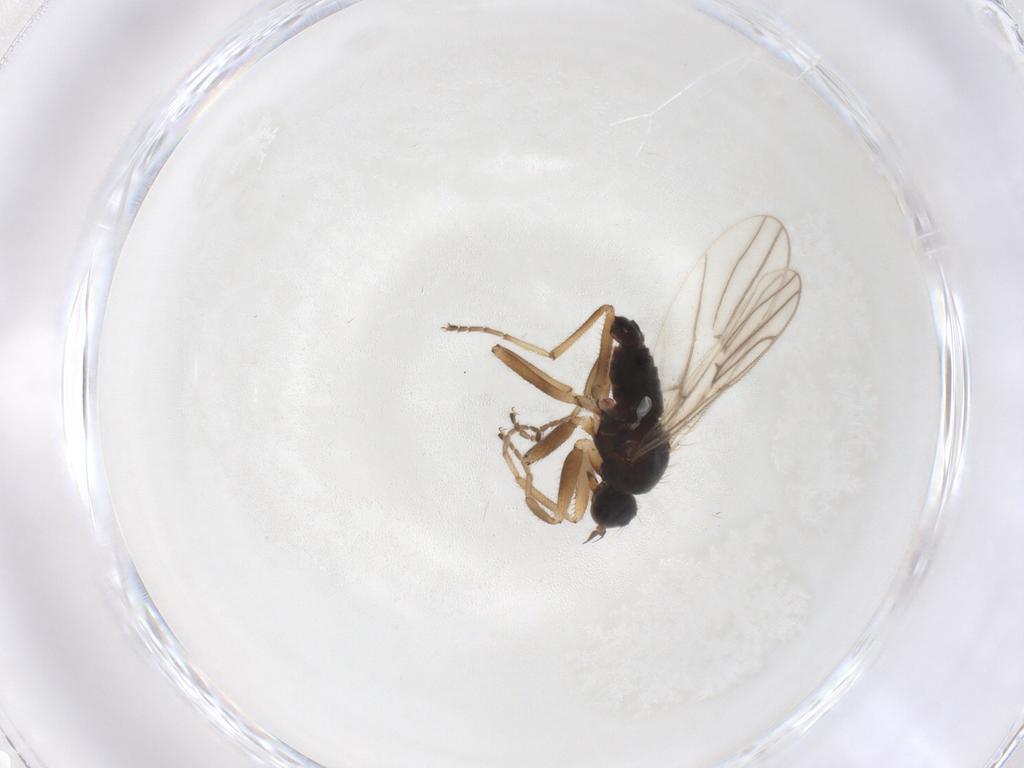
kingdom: Animalia
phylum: Arthropoda
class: Insecta
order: Diptera
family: Hybotidae
